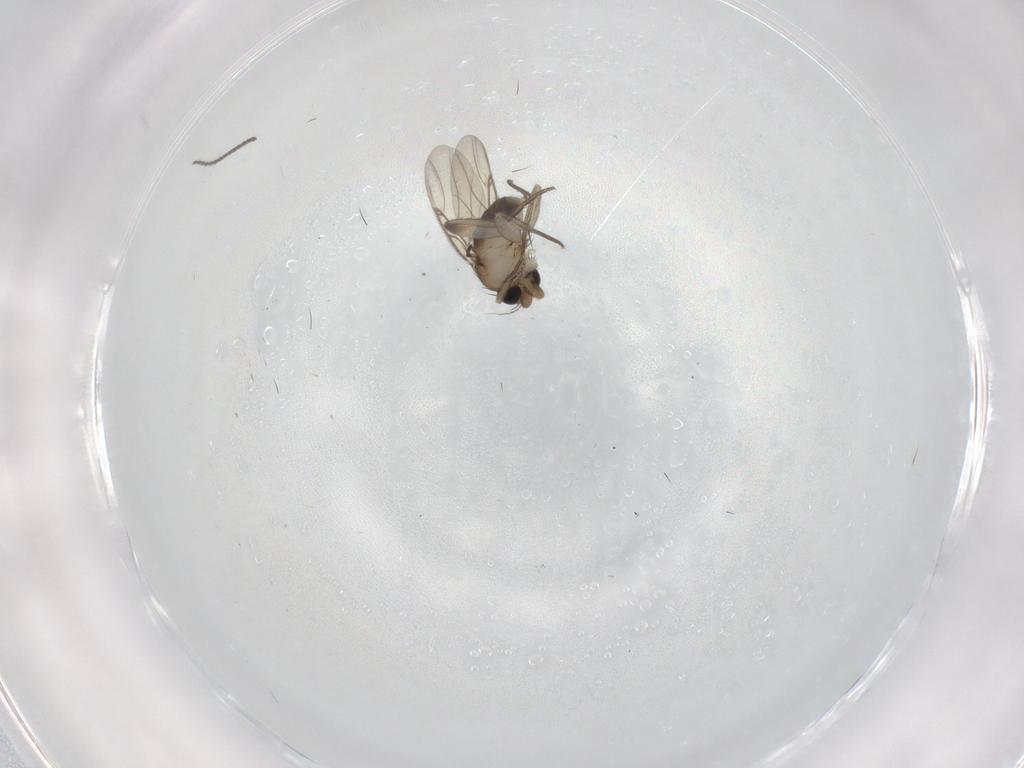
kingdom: Animalia
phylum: Arthropoda
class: Insecta
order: Diptera
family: Phoridae
